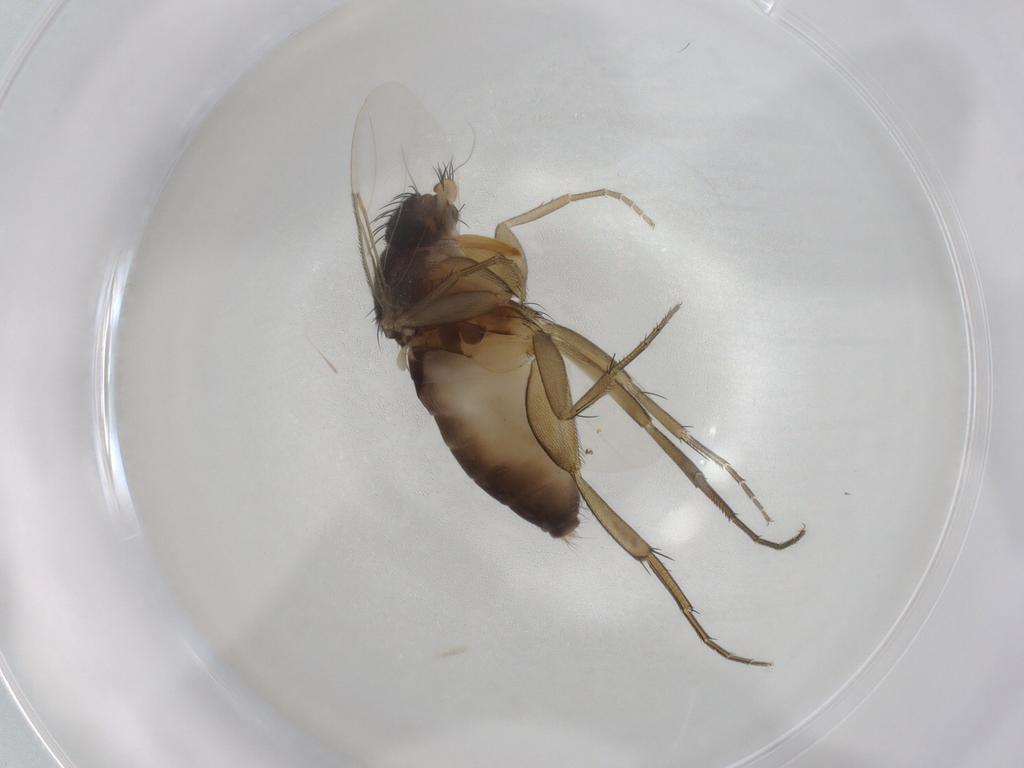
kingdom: Animalia
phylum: Arthropoda
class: Insecta
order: Diptera
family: Phoridae
